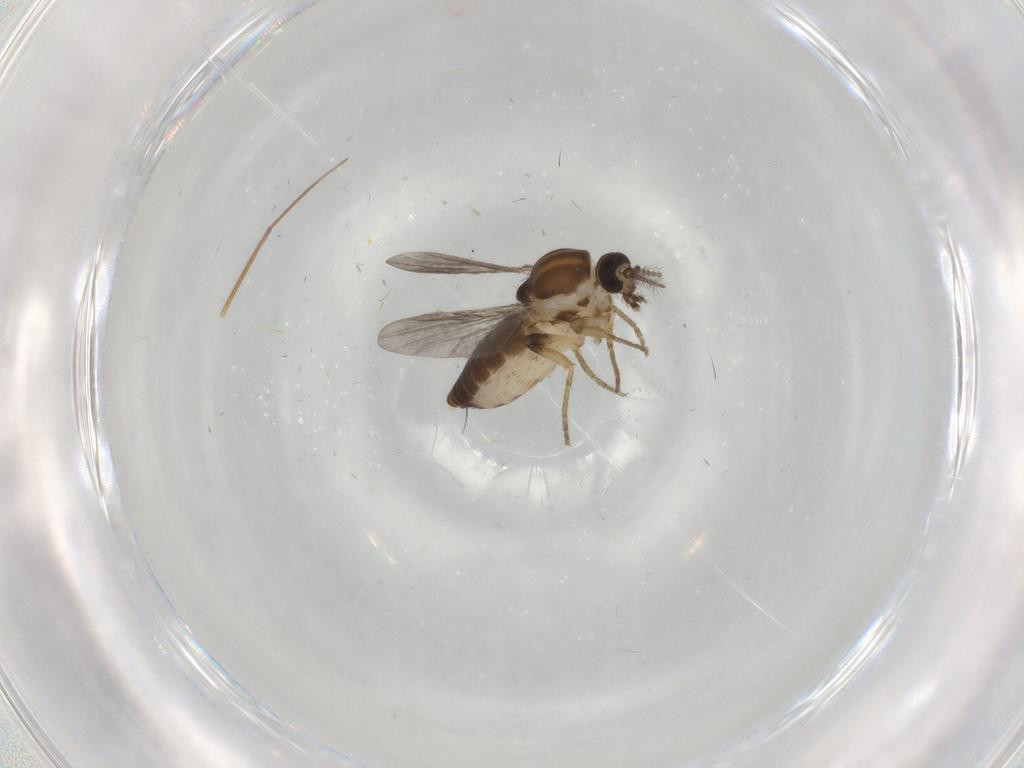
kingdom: Animalia
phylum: Arthropoda
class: Insecta
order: Diptera
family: Ceratopogonidae
